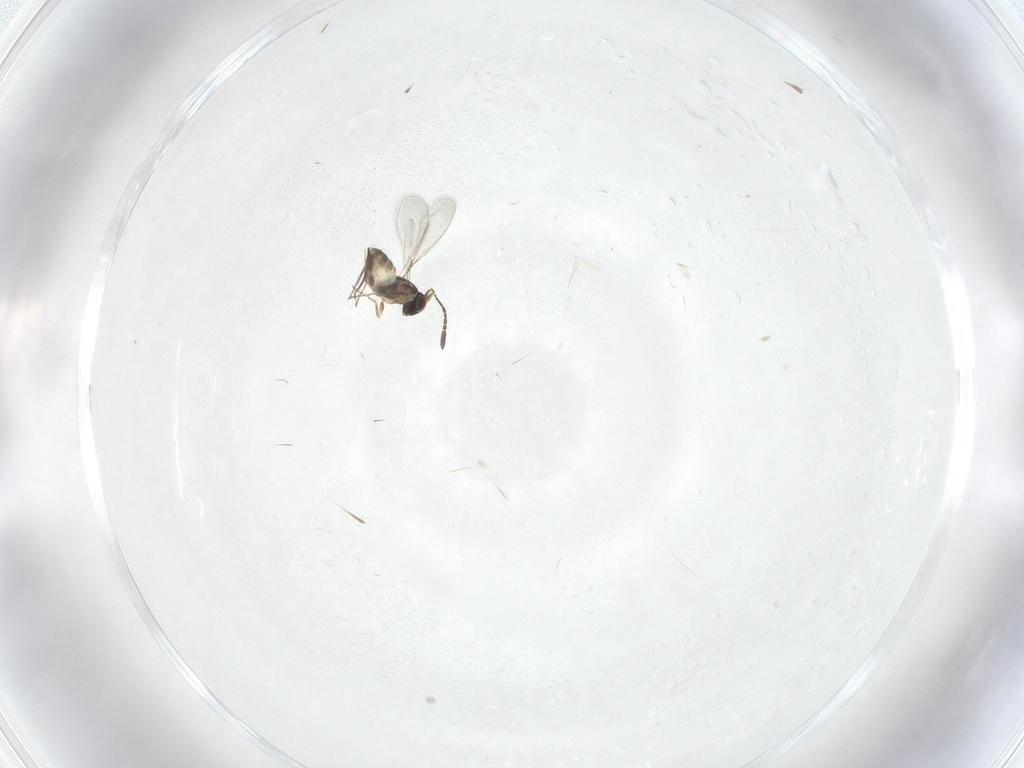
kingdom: Animalia
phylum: Arthropoda
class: Insecta
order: Hymenoptera
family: Mymaridae
